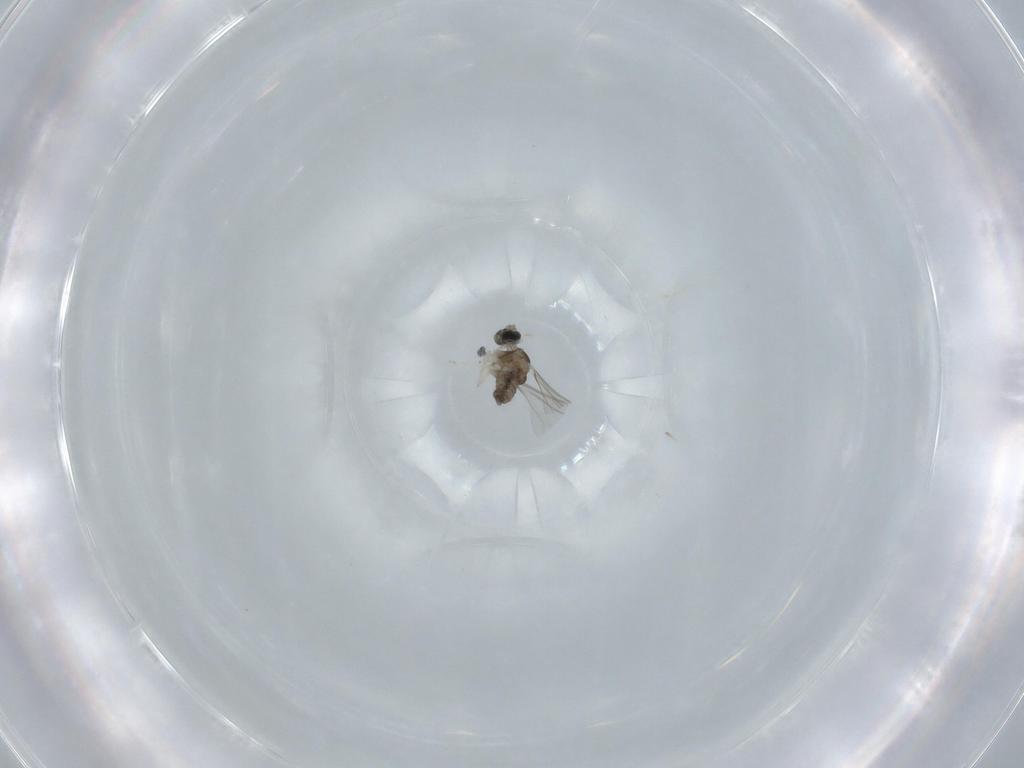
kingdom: Animalia
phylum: Arthropoda
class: Insecta
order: Diptera
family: Cecidomyiidae
